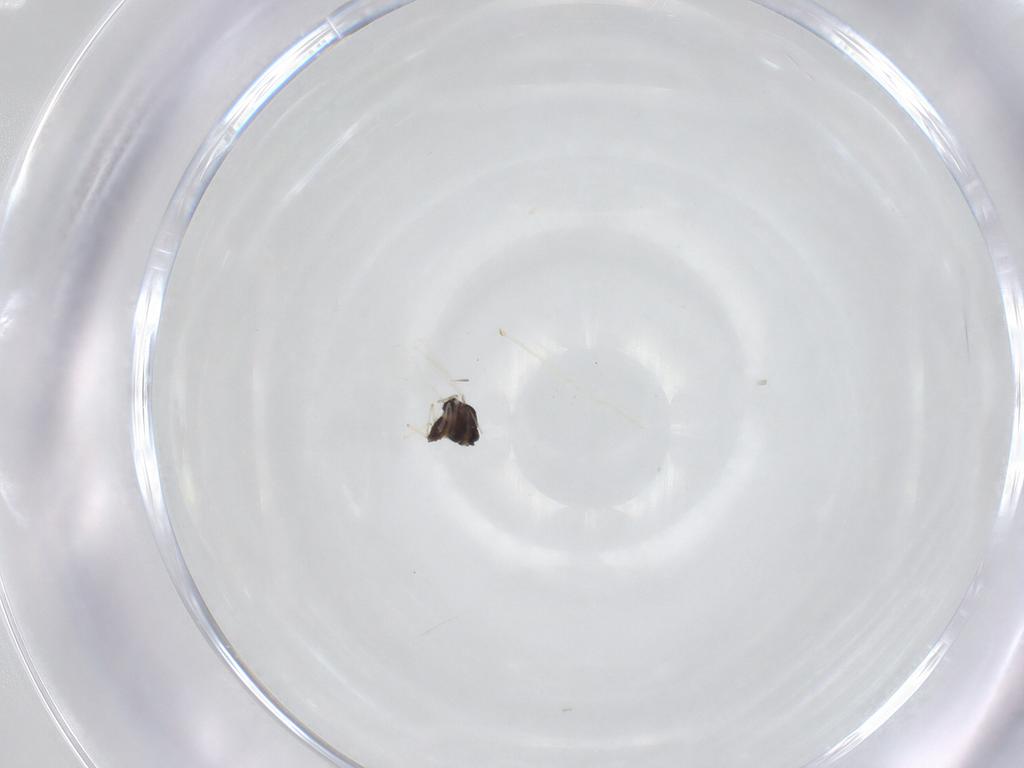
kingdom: Animalia
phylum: Arthropoda
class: Insecta
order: Diptera
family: Chironomidae
